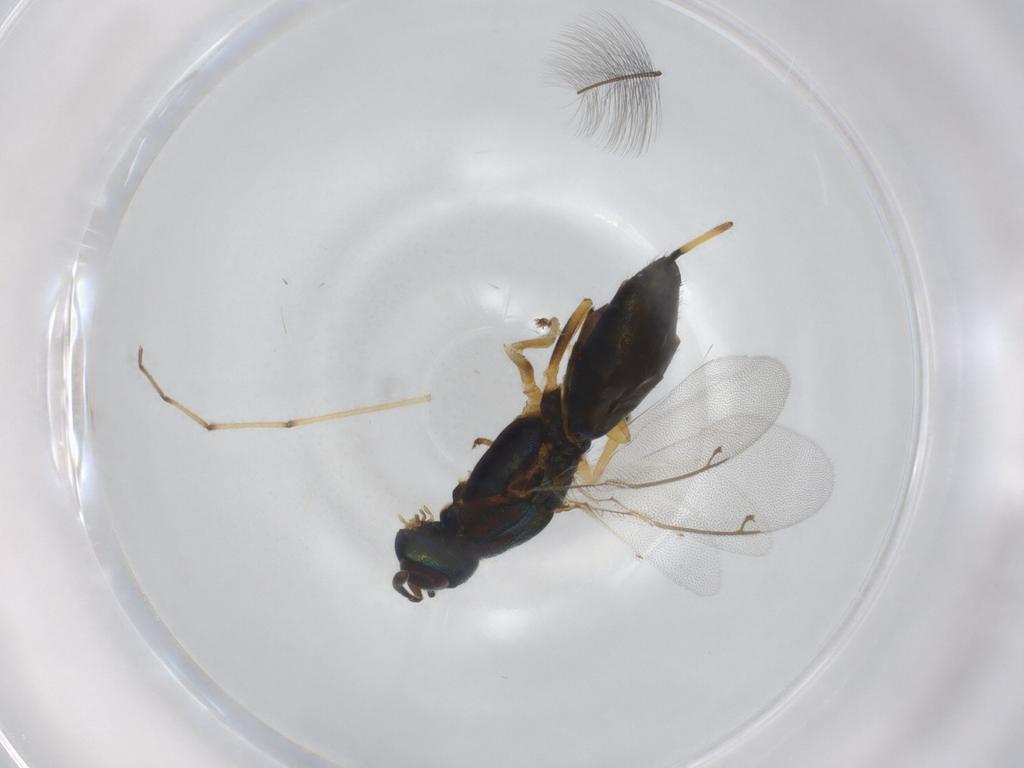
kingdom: Animalia
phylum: Arthropoda
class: Insecta
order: Hymenoptera
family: Eupelmidae
